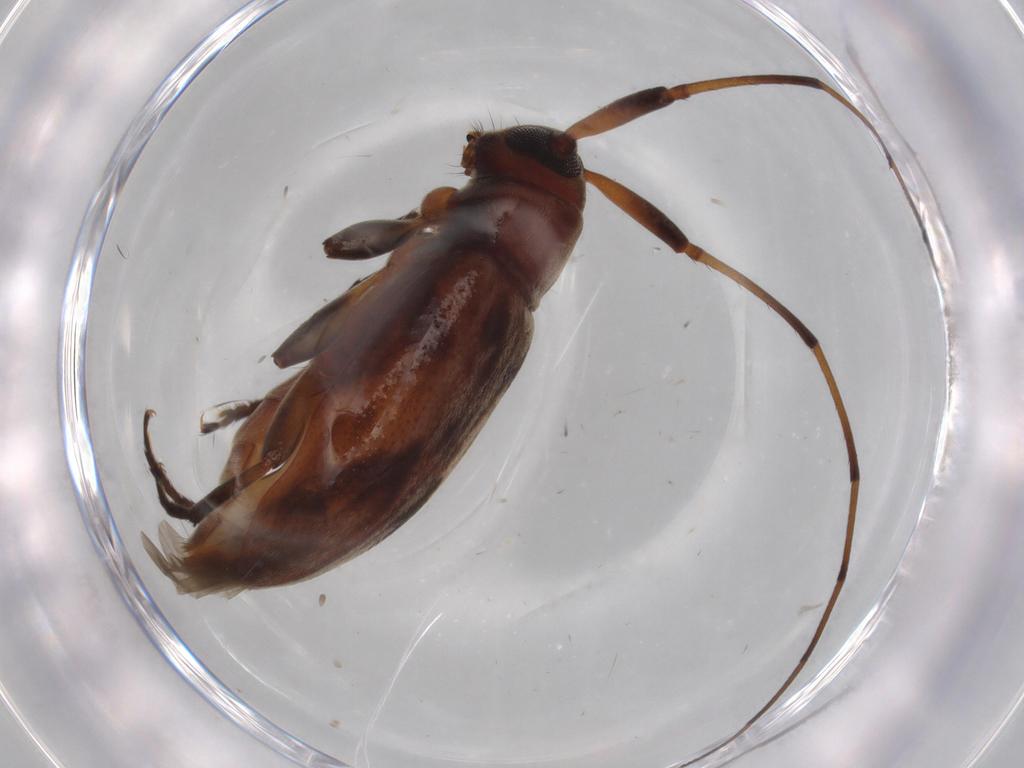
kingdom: Animalia
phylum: Arthropoda
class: Insecta
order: Coleoptera
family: Cerambycidae
